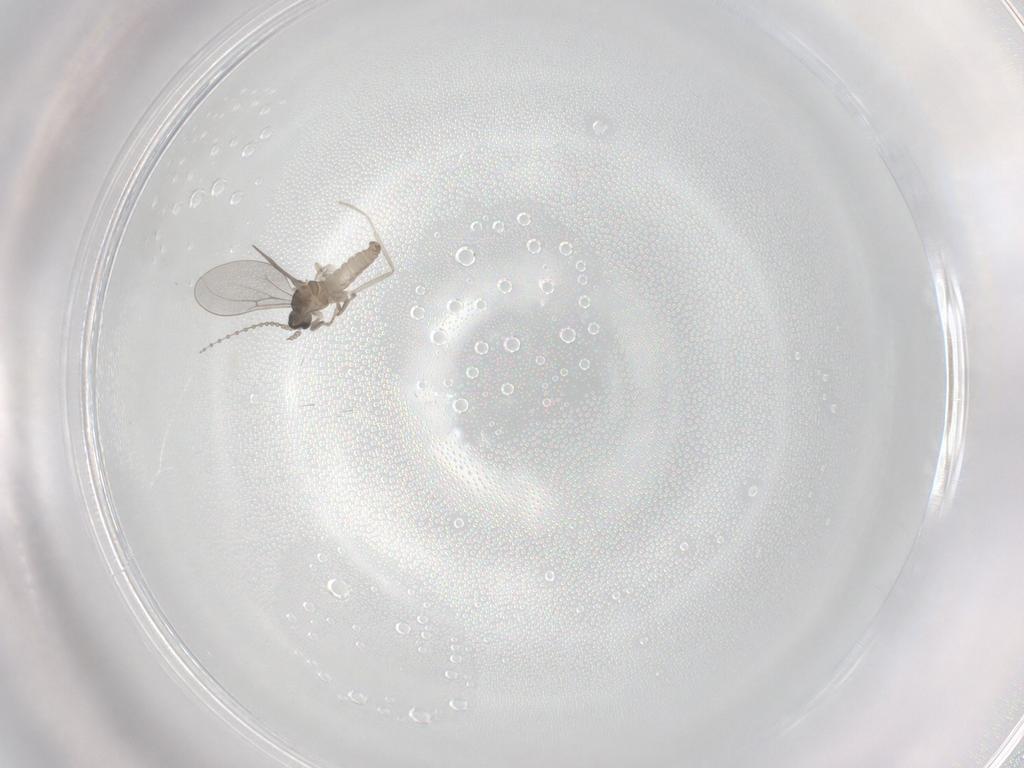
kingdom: Animalia
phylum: Arthropoda
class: Insecta
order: Diptera
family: Cecidomyiidae
